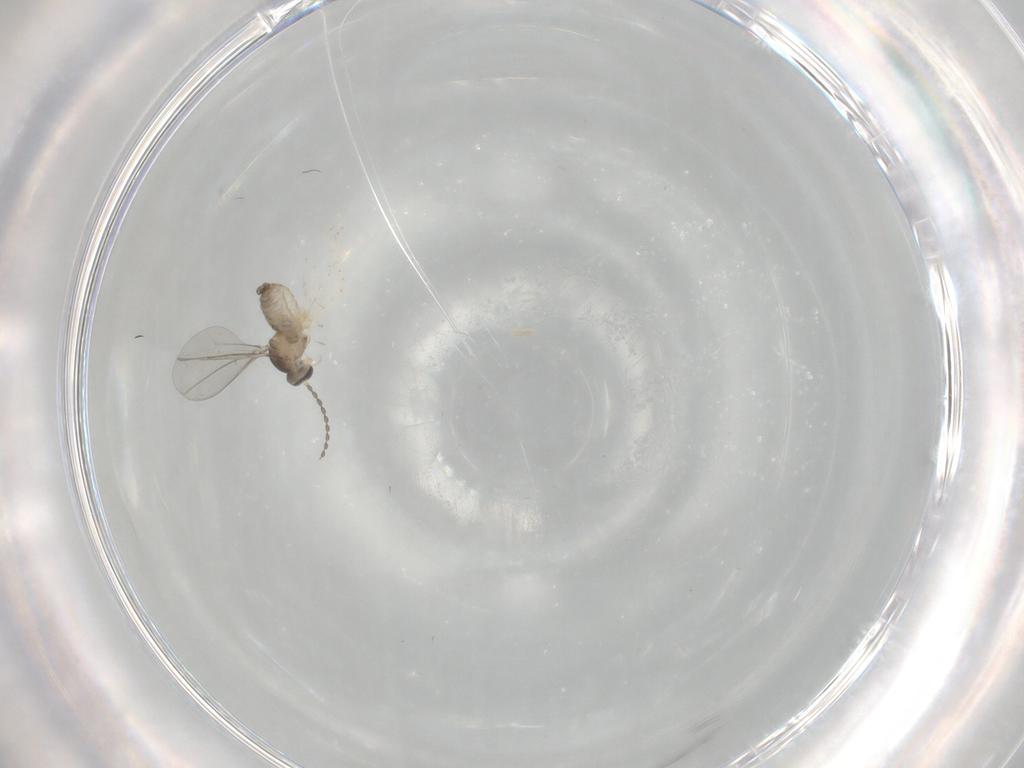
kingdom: Animalia
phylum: Arthropoda
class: Insecta
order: Diptera
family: Cecidomyiidae
